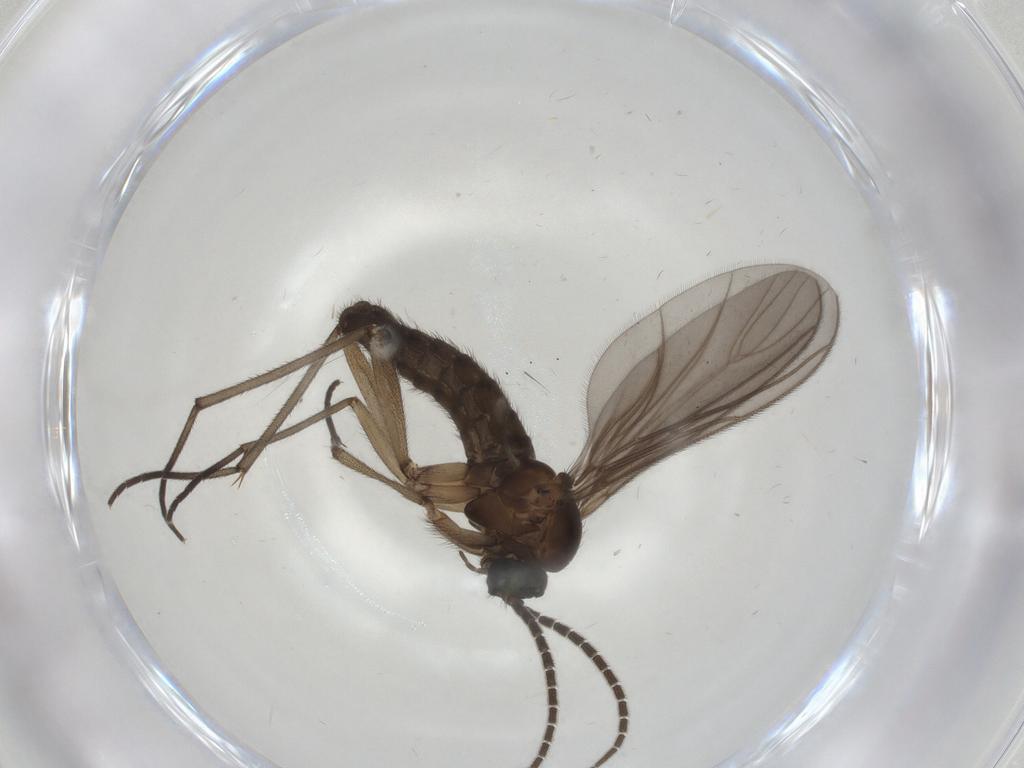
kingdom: Animalia
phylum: Arthropoda
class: Insecta
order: Diptera
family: Sciaridae
